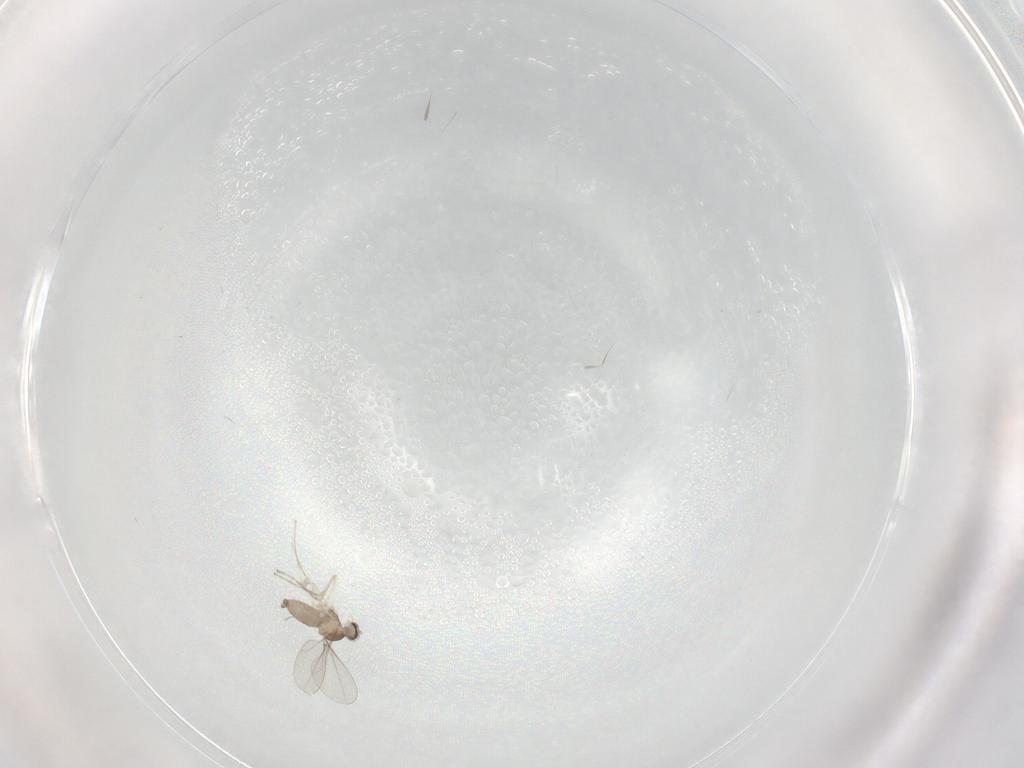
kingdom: Animalia
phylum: Arthropoda
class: Insecta
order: Diptera
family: Cecidomyiidae
